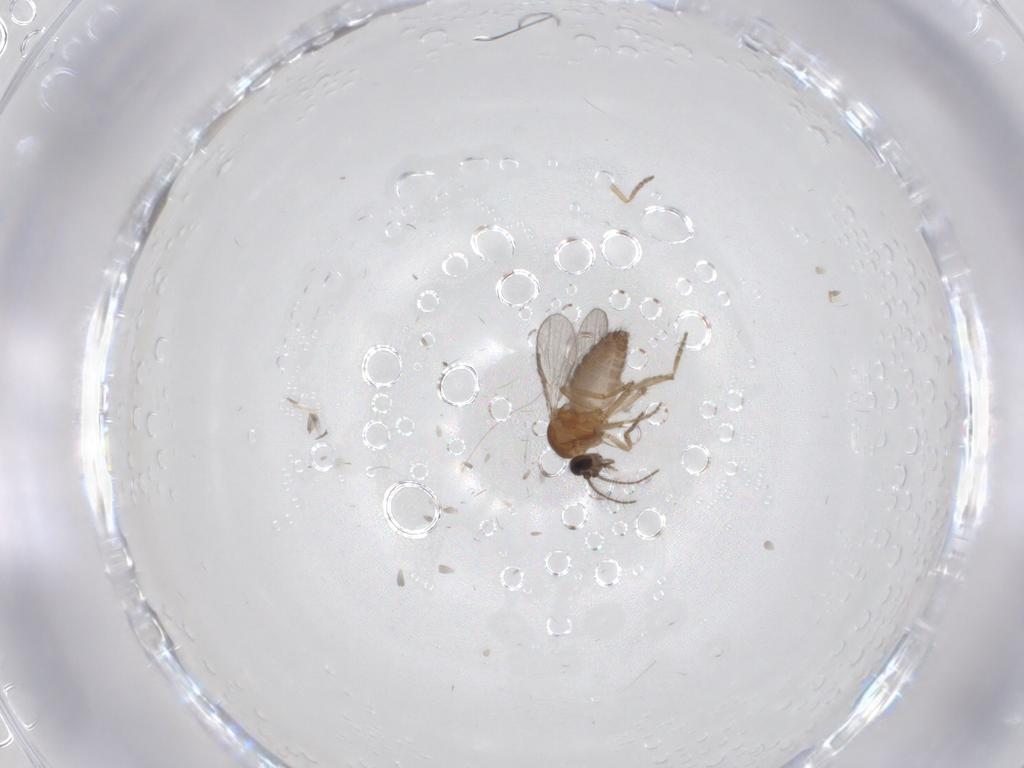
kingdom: Animalia
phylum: Arthropoda
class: Insecta
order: Diptera
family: Ceratopogonidae
